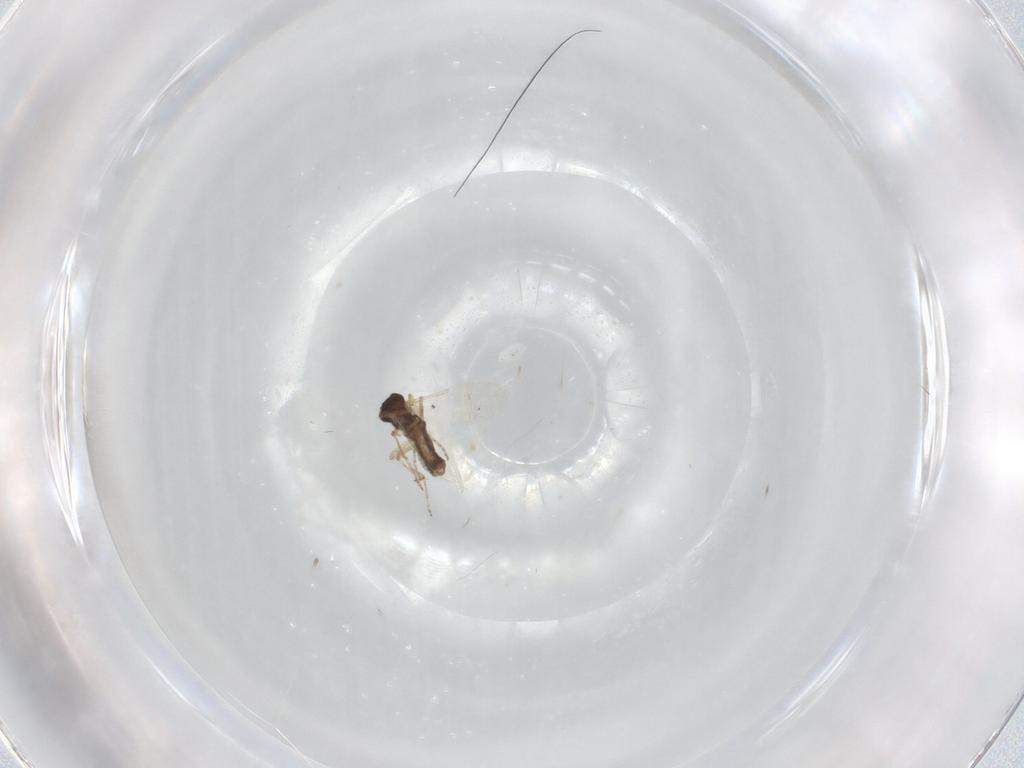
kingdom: Animalia
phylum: Arthropoda
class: Insecta
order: Diptera
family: Ceratopogonidae
